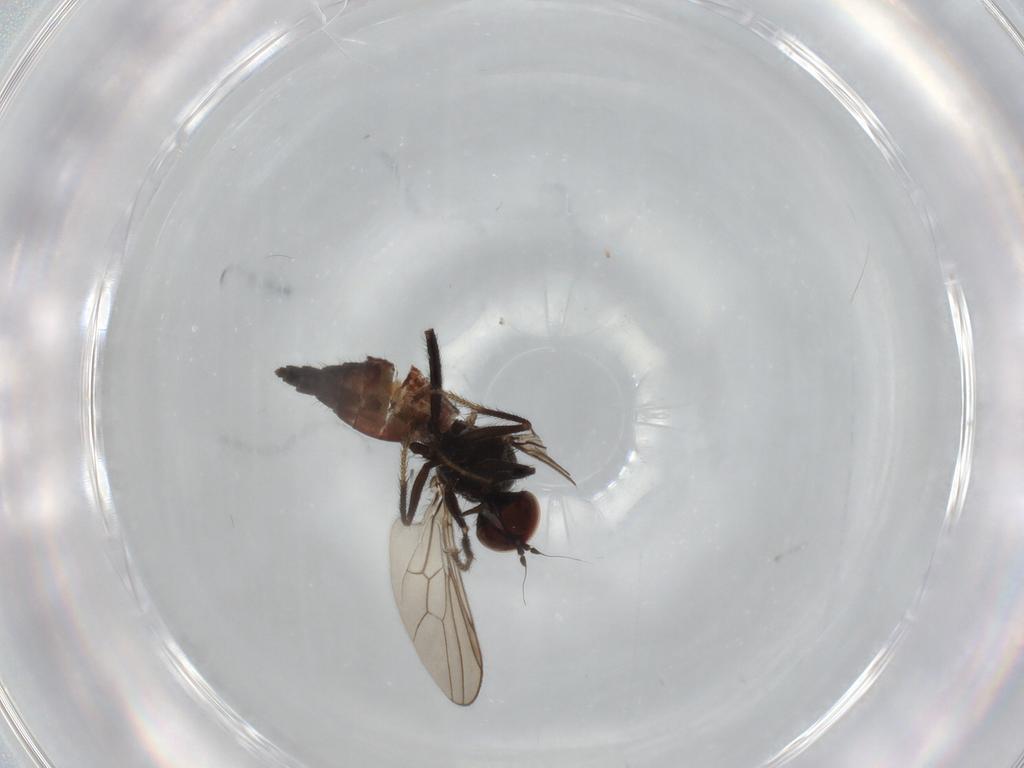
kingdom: Animalia
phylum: Arthropoda
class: Insecta
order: Diptera
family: Hybotidae
